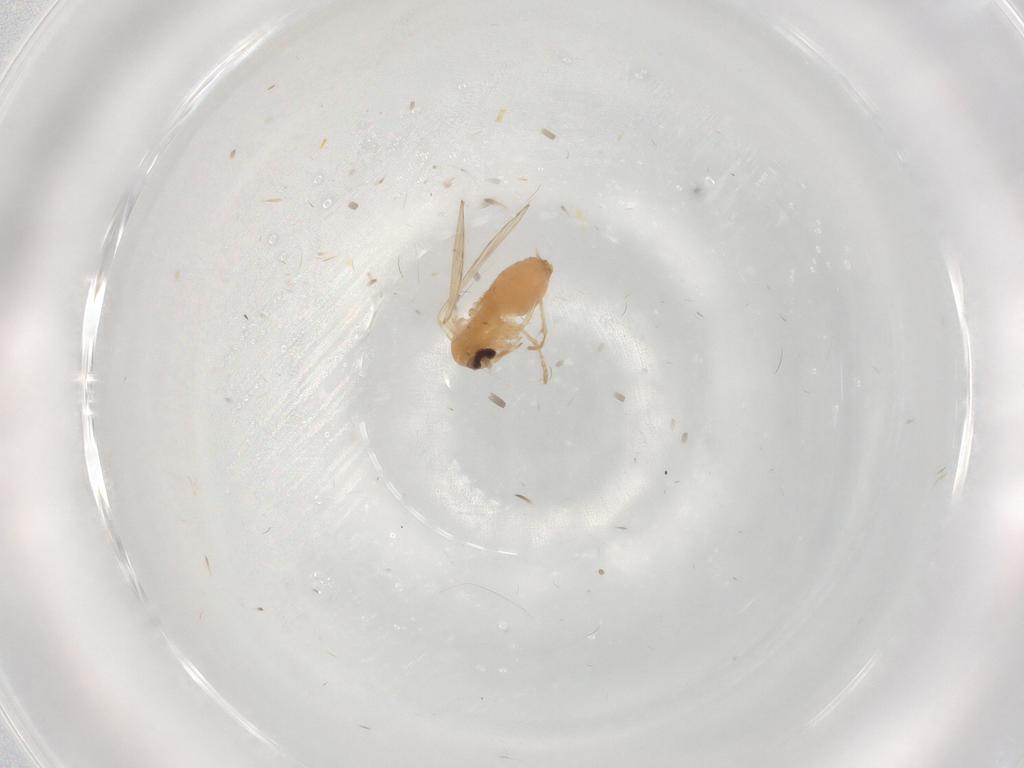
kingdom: Animalia
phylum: Arthropoda
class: Insecta
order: Diptera
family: Psychodidae
